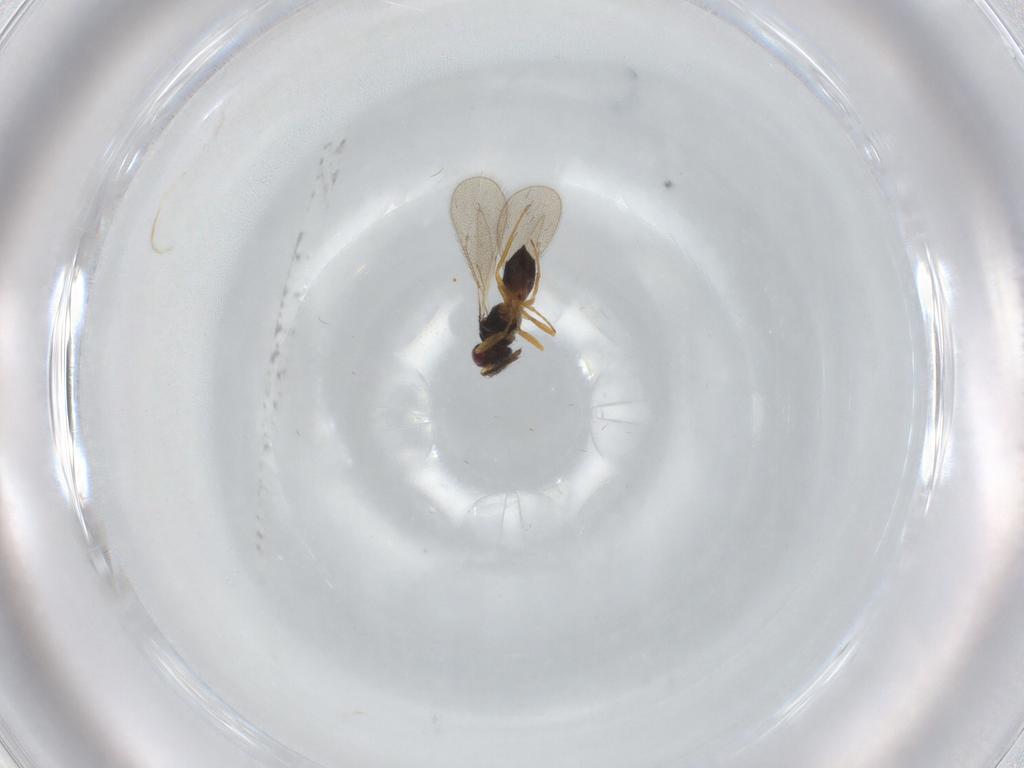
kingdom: Animalia
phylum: Arthropoda
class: Insecta
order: Hymenoptera
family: Eulophidae
